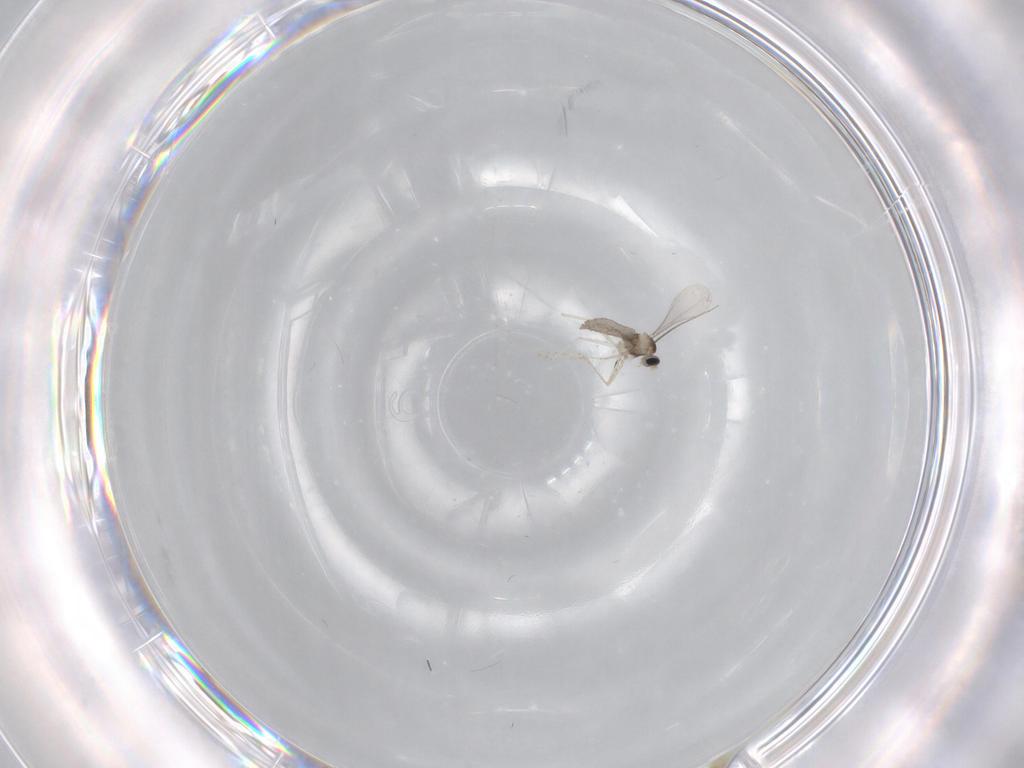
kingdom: Animalia
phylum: Arthropoda
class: Insecta
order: Diptera
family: Cecidomyiidae
